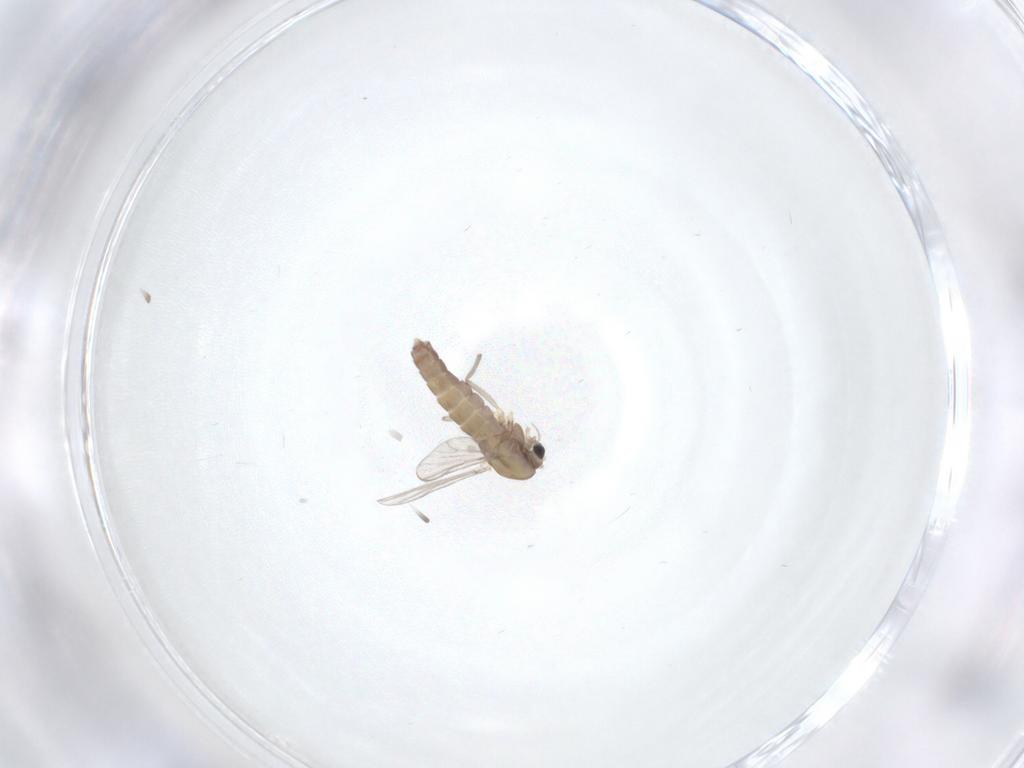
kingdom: Animalia
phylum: Arthropoda
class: Insecta
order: Diptera
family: Chironomidae
